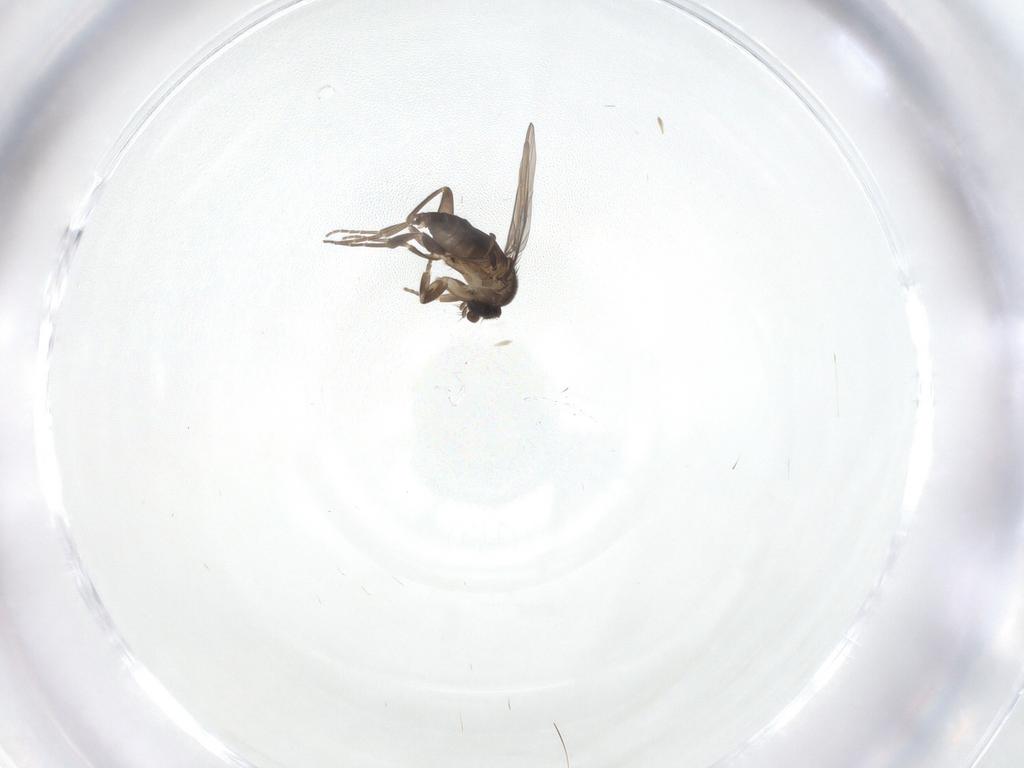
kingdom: Animalia
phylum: Arthropoda
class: Insecta
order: Diptera
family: Phoridae
